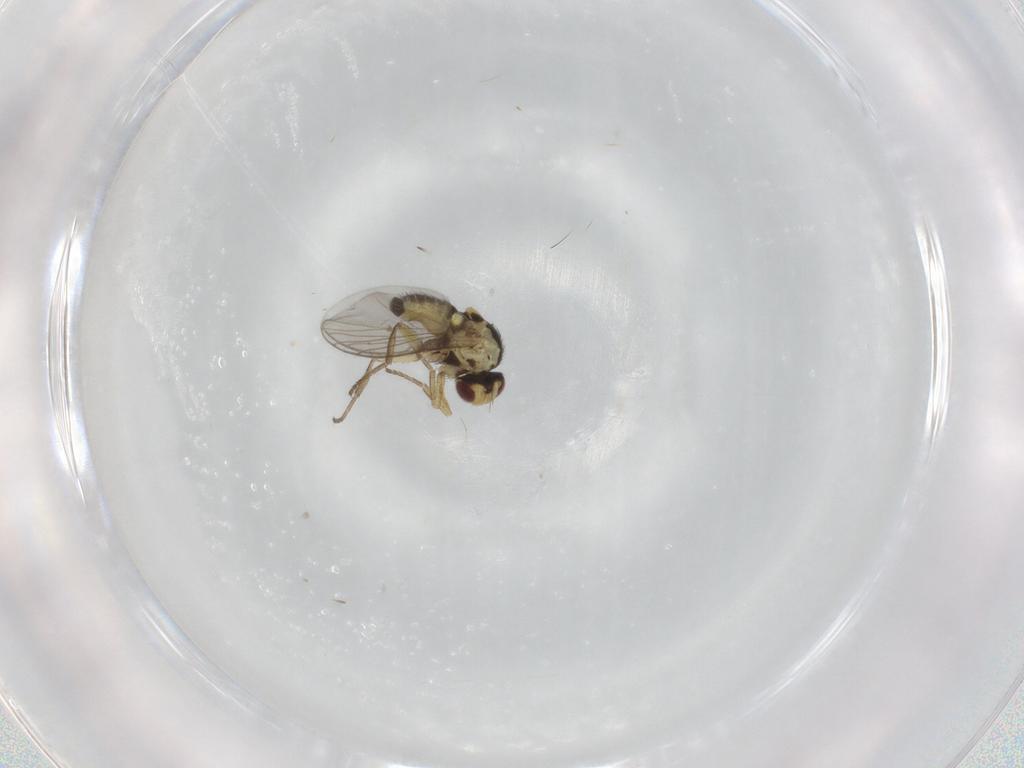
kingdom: Animalia
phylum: Arthropoda
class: Insecta
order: Diptera
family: Agromyzidae
